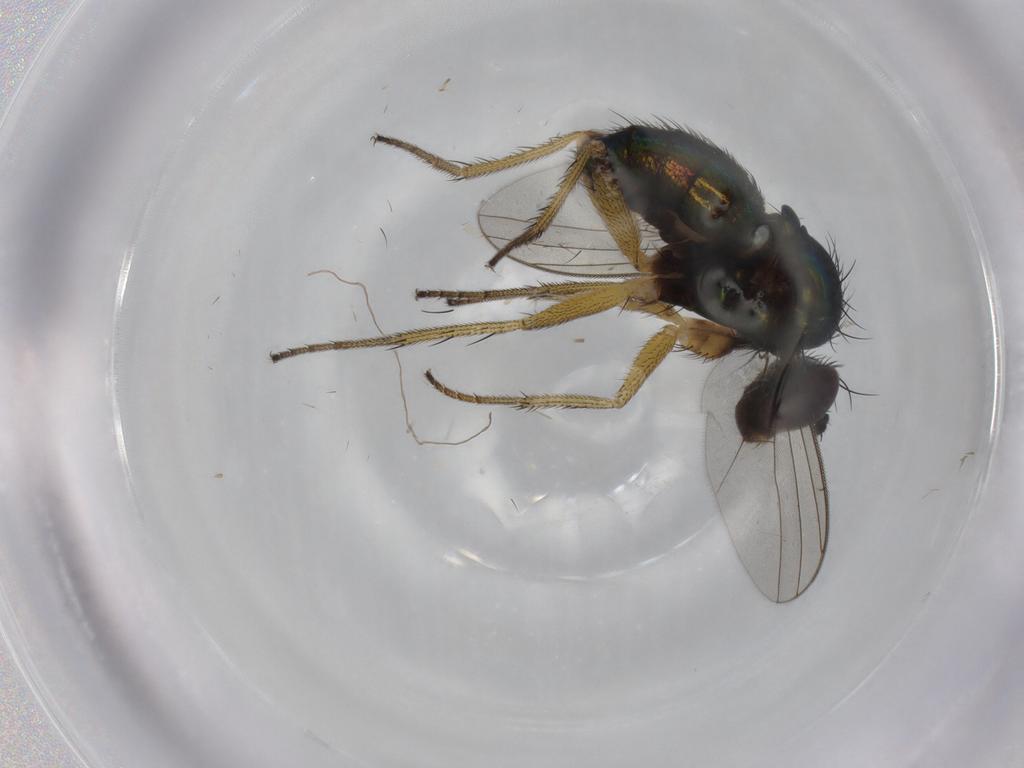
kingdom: Animalia
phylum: Arthropoda
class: Insecta
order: Diptera
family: Dolichopodidae
